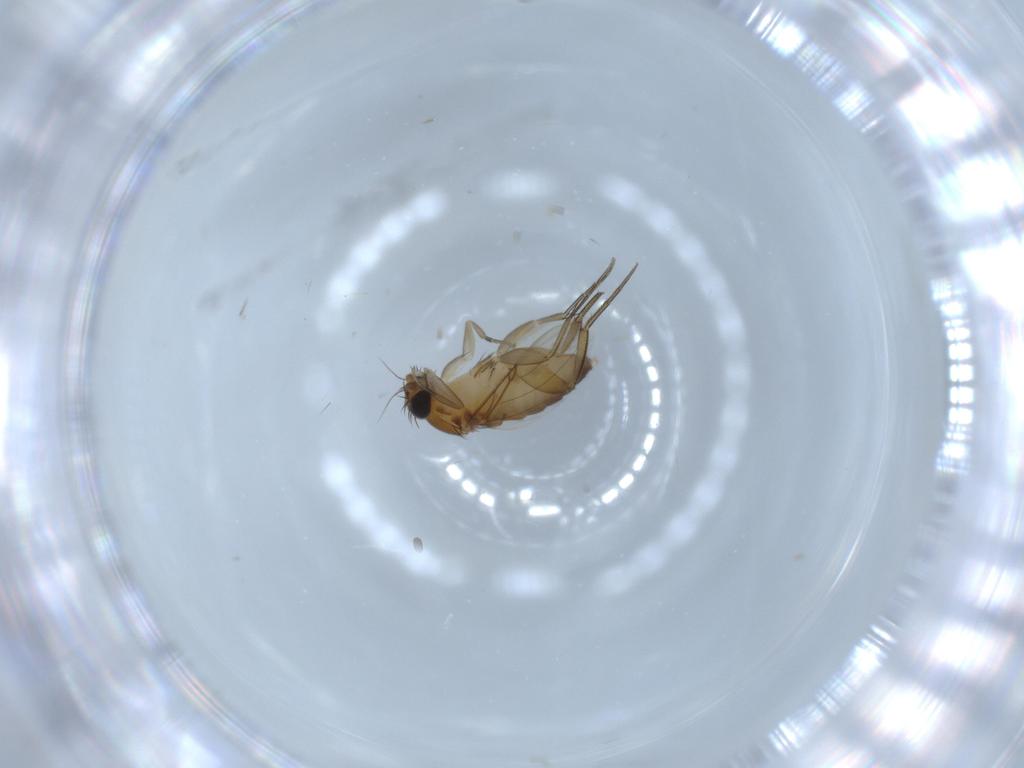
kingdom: Animalia
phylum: Arthropoda
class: Insecta
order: Diptera
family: Phoridae
